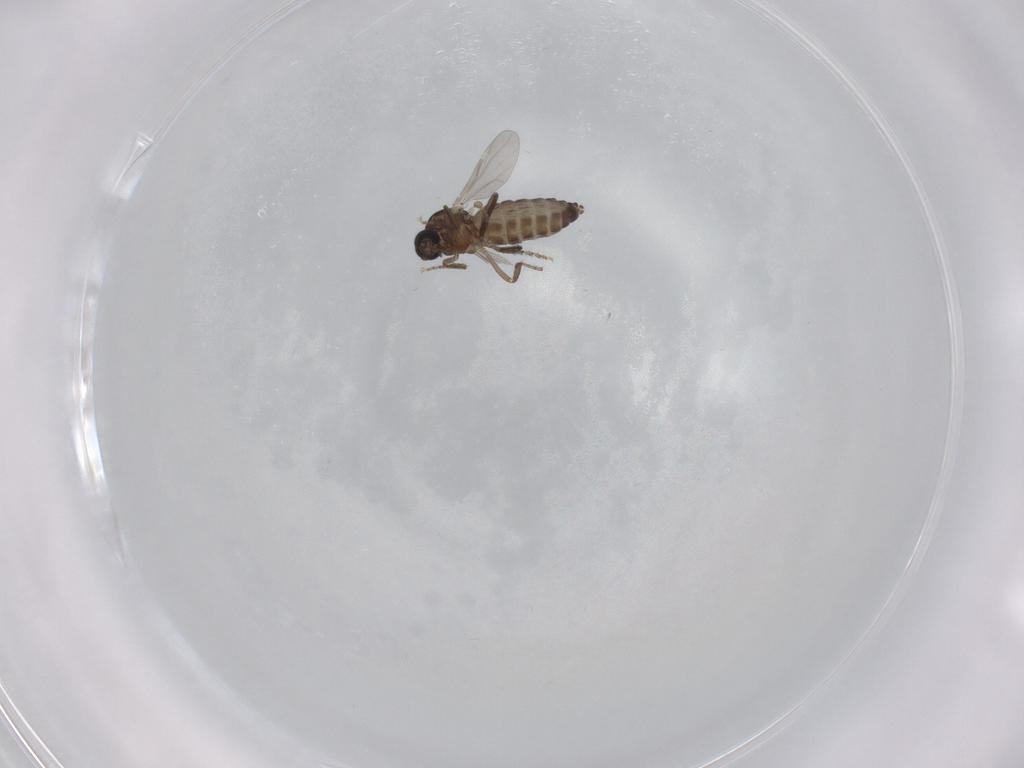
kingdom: Animalia
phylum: Arthropoda
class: Insecta
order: Diptera
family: Ceratopogonidae
